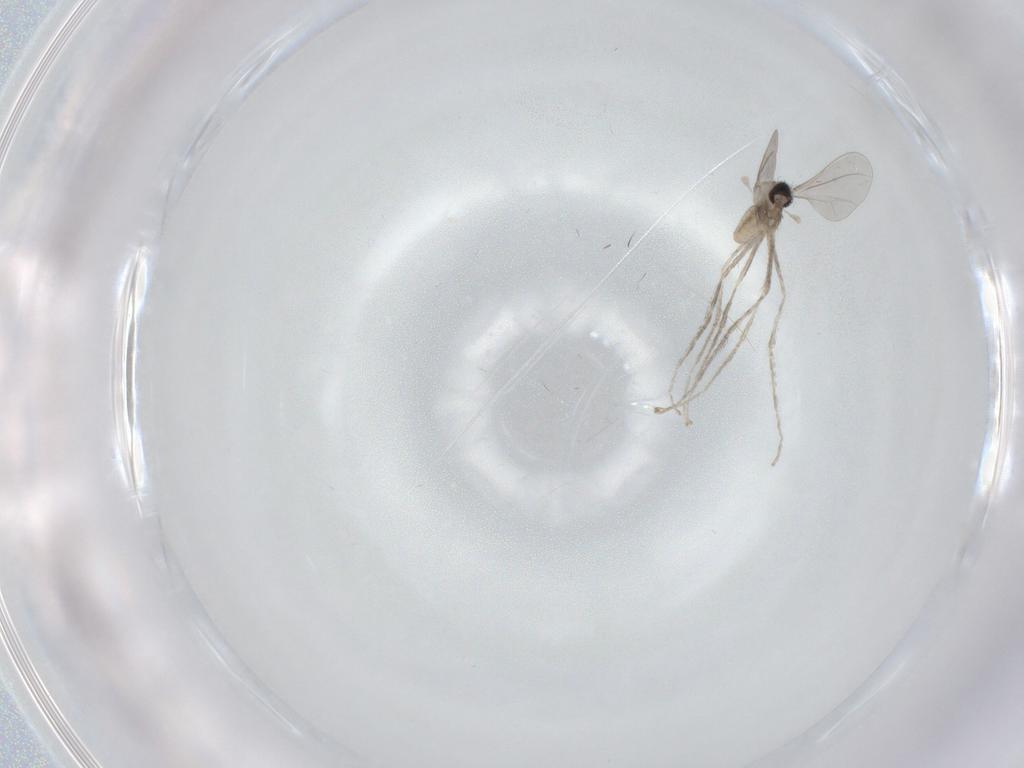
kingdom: Animalia
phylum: Arthropoda
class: Insecta
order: Diptera
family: Sphaeroceridae
